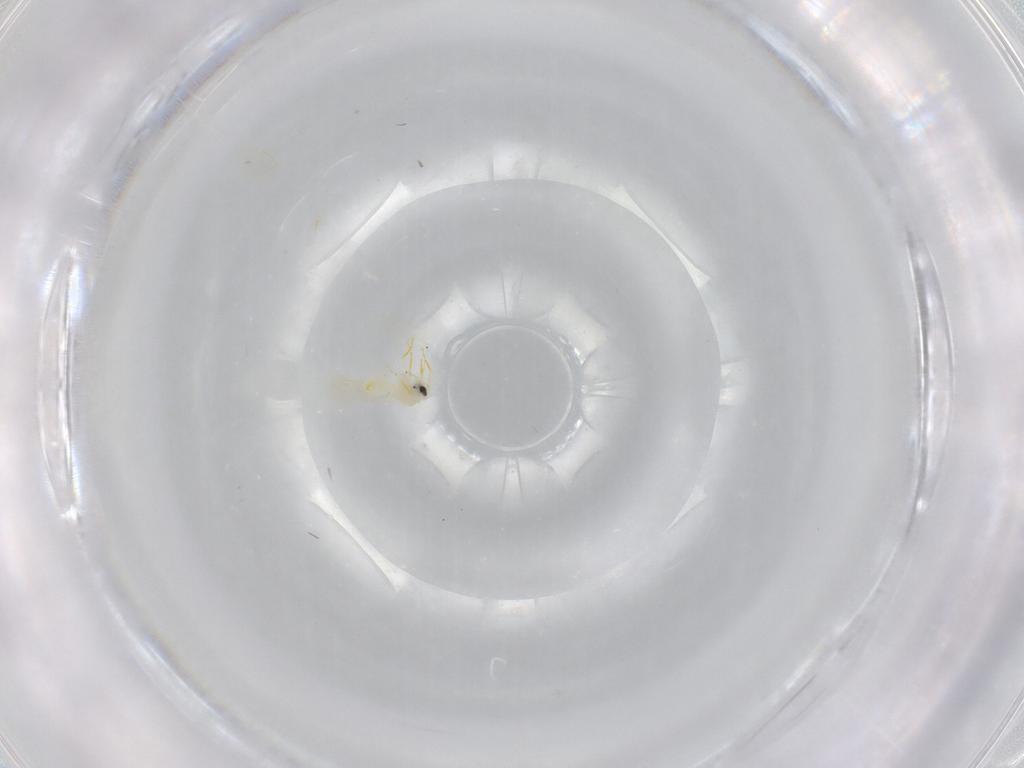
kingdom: Animalia
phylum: Arthropoda
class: Insecta
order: Hemiptera
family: Aleyrodidae
